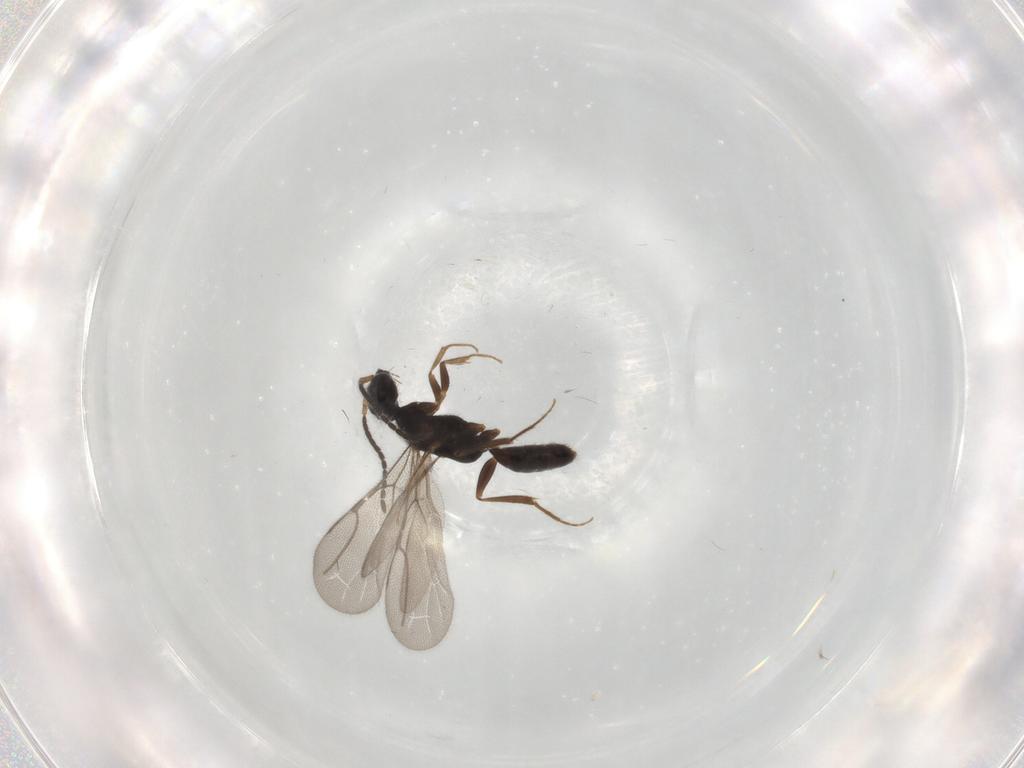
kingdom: Animalia
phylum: Arthropoda
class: Insecta
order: Hymenoptera
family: Bethylidae
